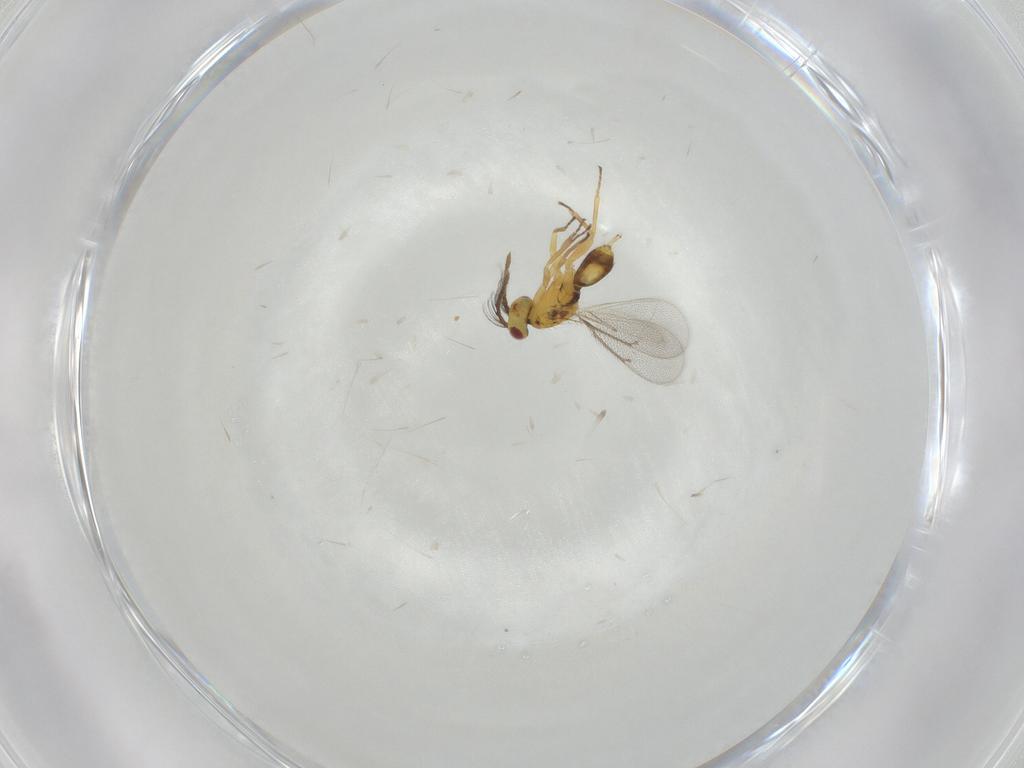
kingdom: Animalia
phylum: Arthropoda
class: Insecta
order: Hymenoptera
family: Eulophidae
